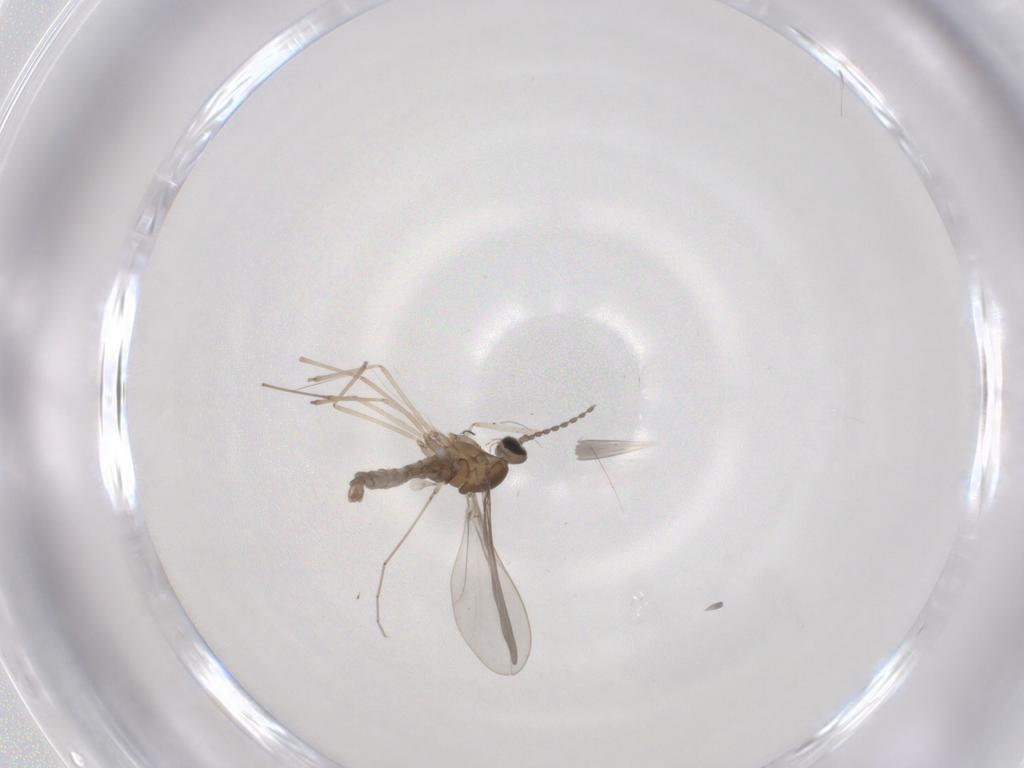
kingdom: Animalia
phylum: Arthropoda
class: Insecta
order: Diptera
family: Cecidomyiidae
